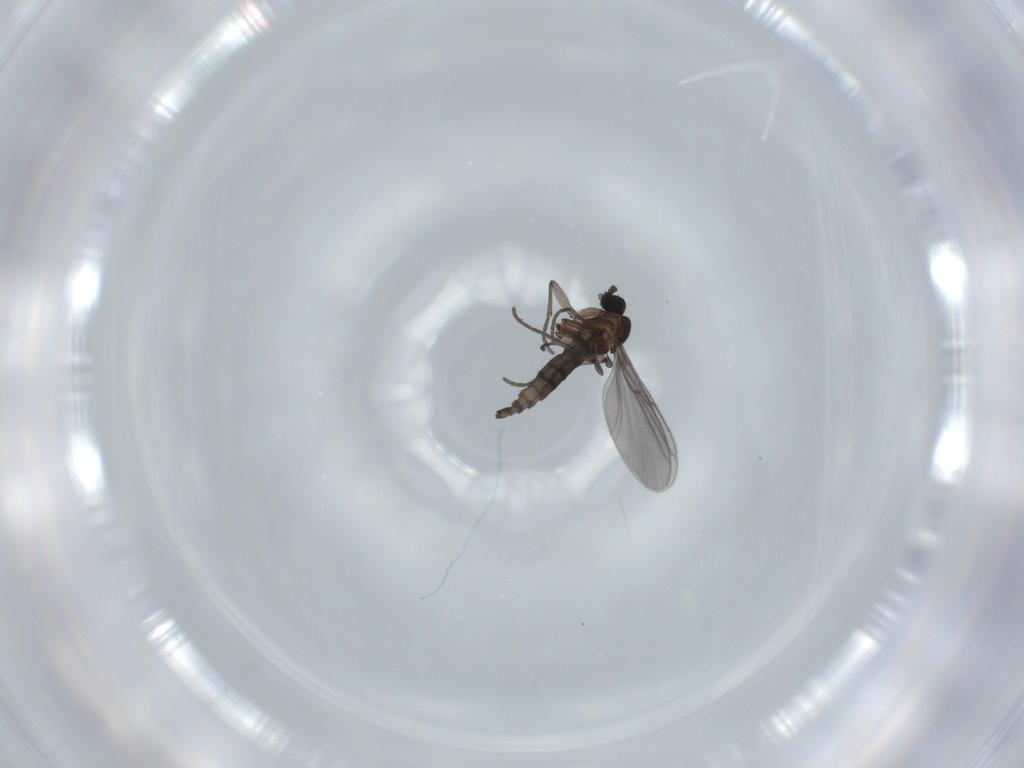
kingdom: Animalia
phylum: Arthropoda
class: Insecta
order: Diptera
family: Milichiidae
